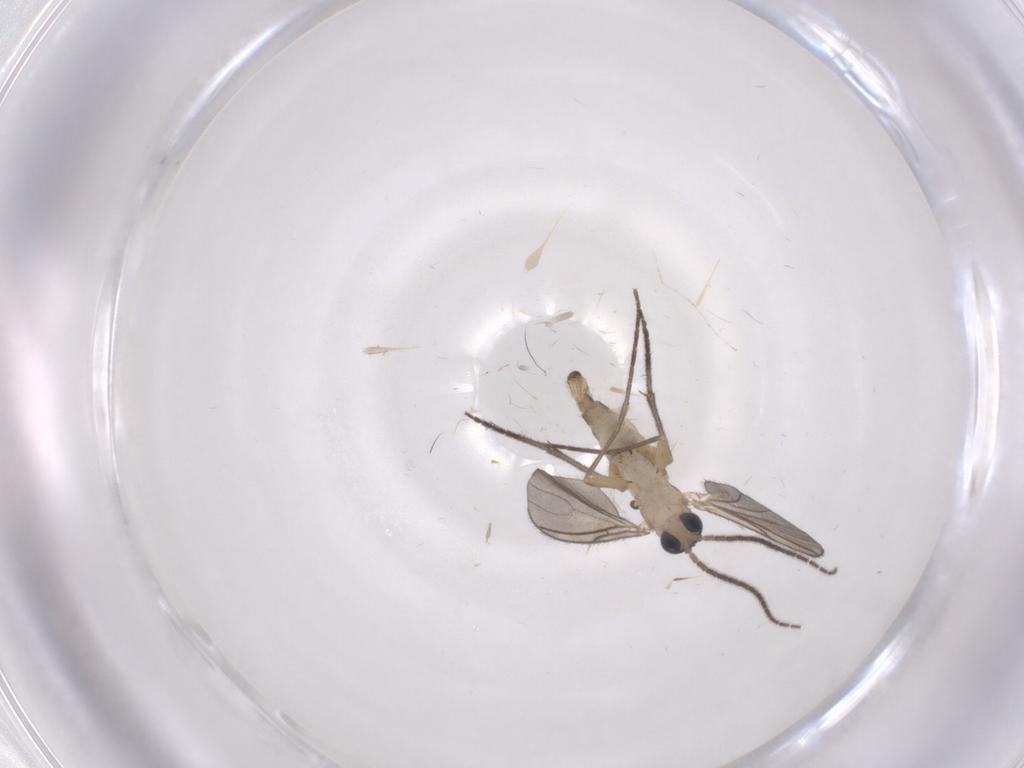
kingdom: Animalia
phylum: Arthropoda
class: Insecta
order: Diptera
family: Sciaridae
